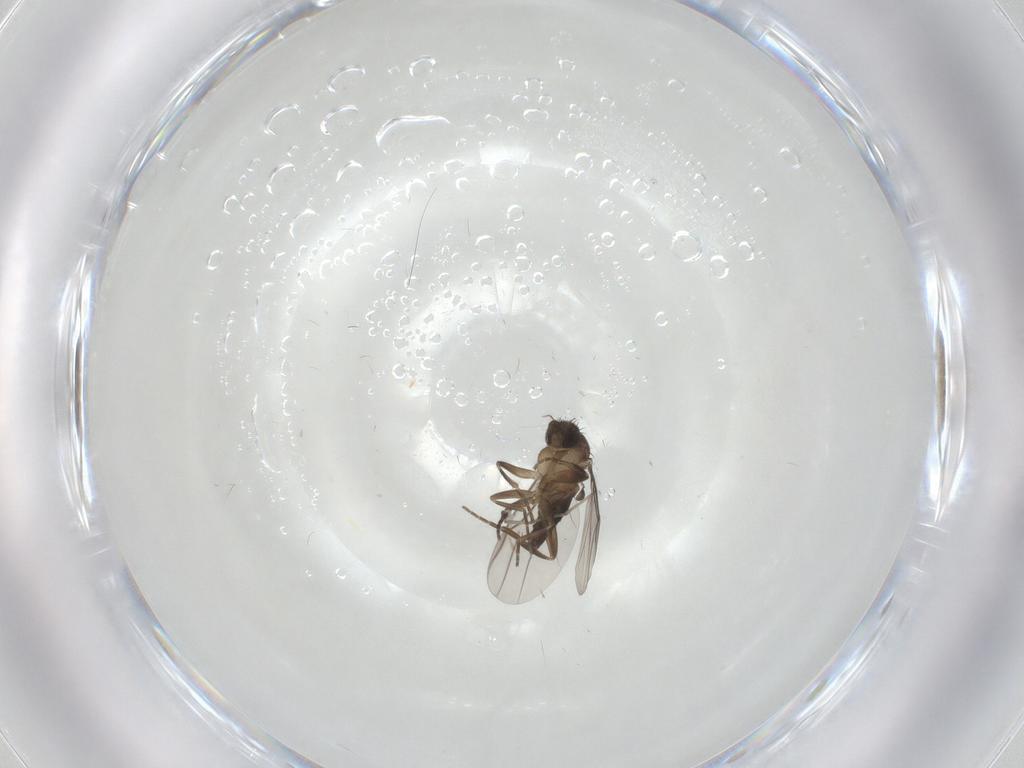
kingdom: Animalia
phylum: Arthropoda
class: Insecta
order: Diptera
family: Phoridae
